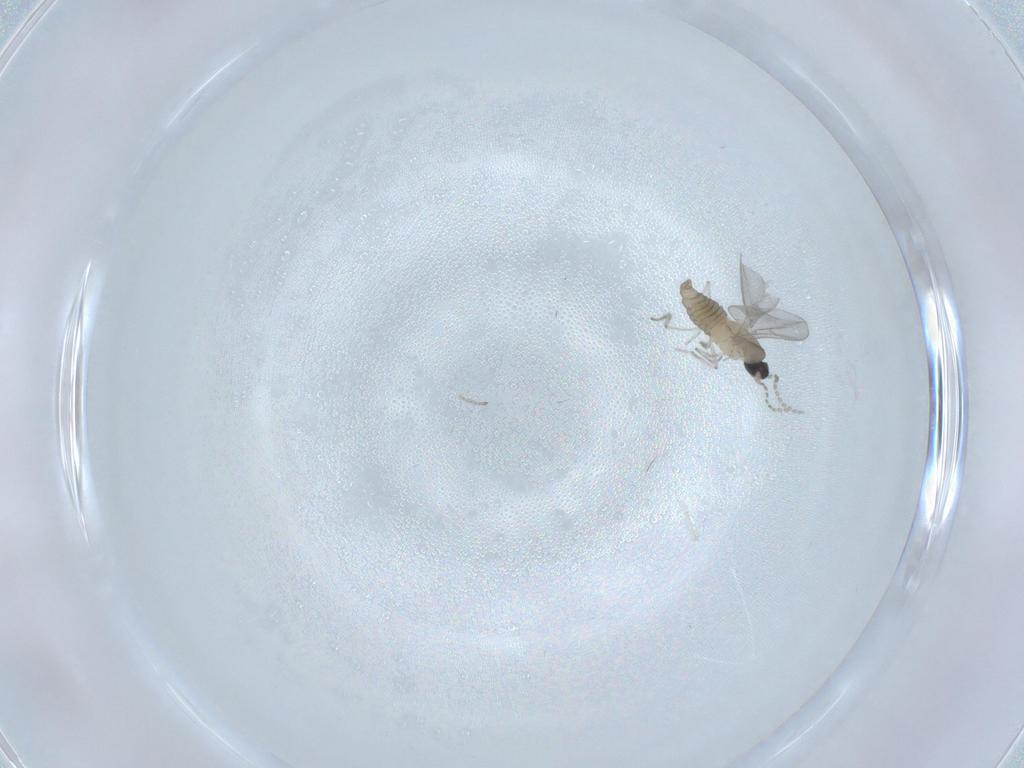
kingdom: Animalia
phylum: Arthropoda
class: Insecta
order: Diptera
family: Cecidomyiidae
